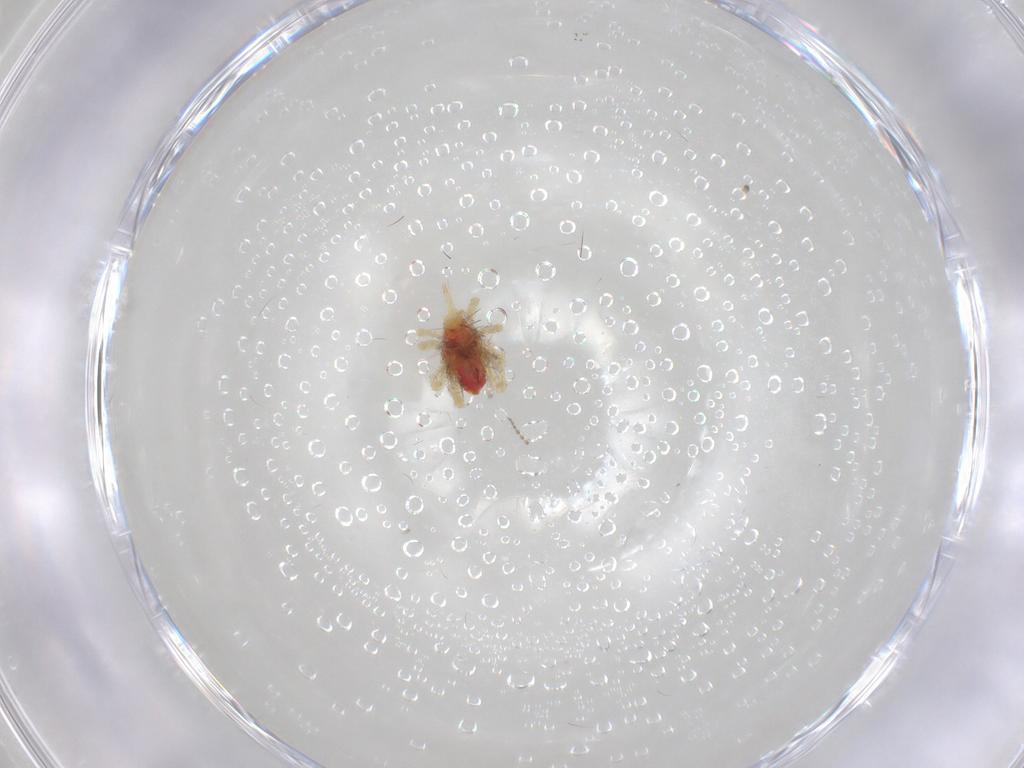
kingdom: Animalia
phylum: Arthropoda
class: Arachnida
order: Trombidiformes
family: Bdellidae
